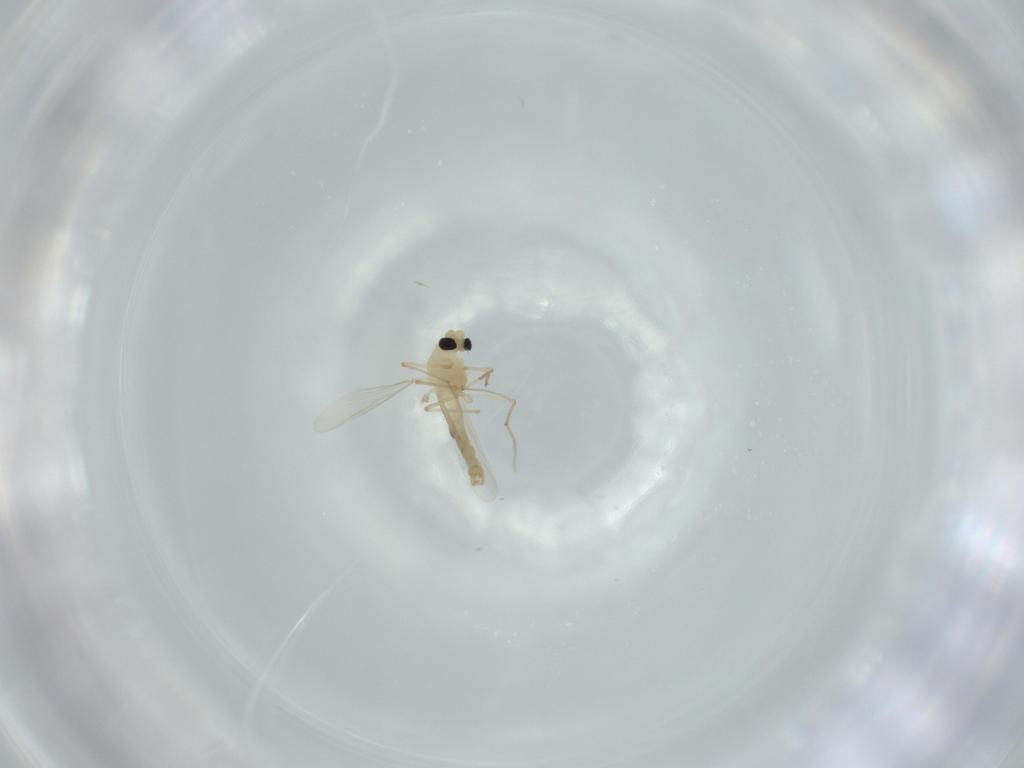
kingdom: Animalia
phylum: Arthropoda
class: Insecta
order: Diptera
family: Chironomidae
